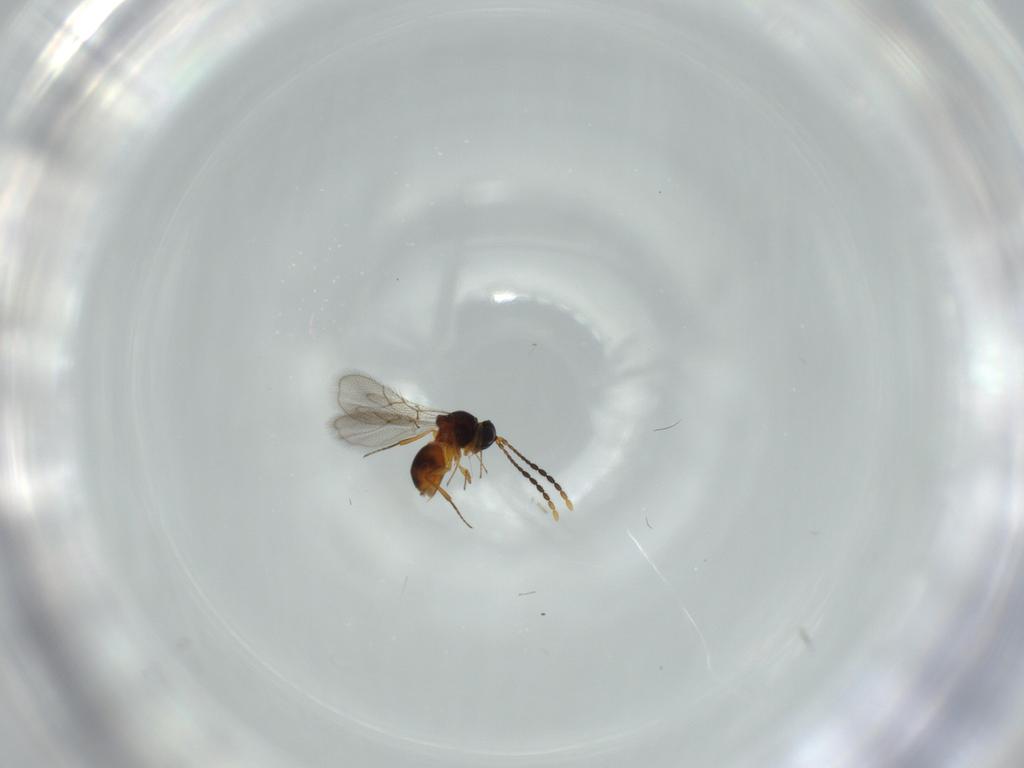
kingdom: Animalia
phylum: Arthropoda
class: Insecta
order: Hymenoptera
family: Figitidae
